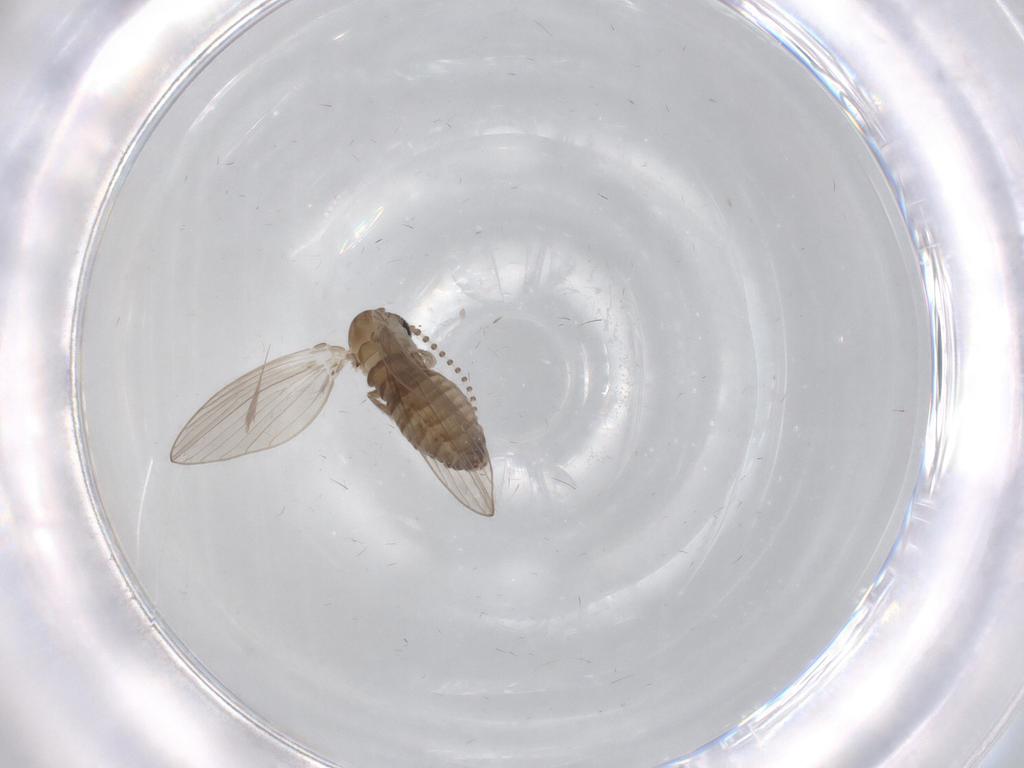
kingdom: Animalia
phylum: Arthropoda
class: Insecta
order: Diptera
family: Psychodidae
